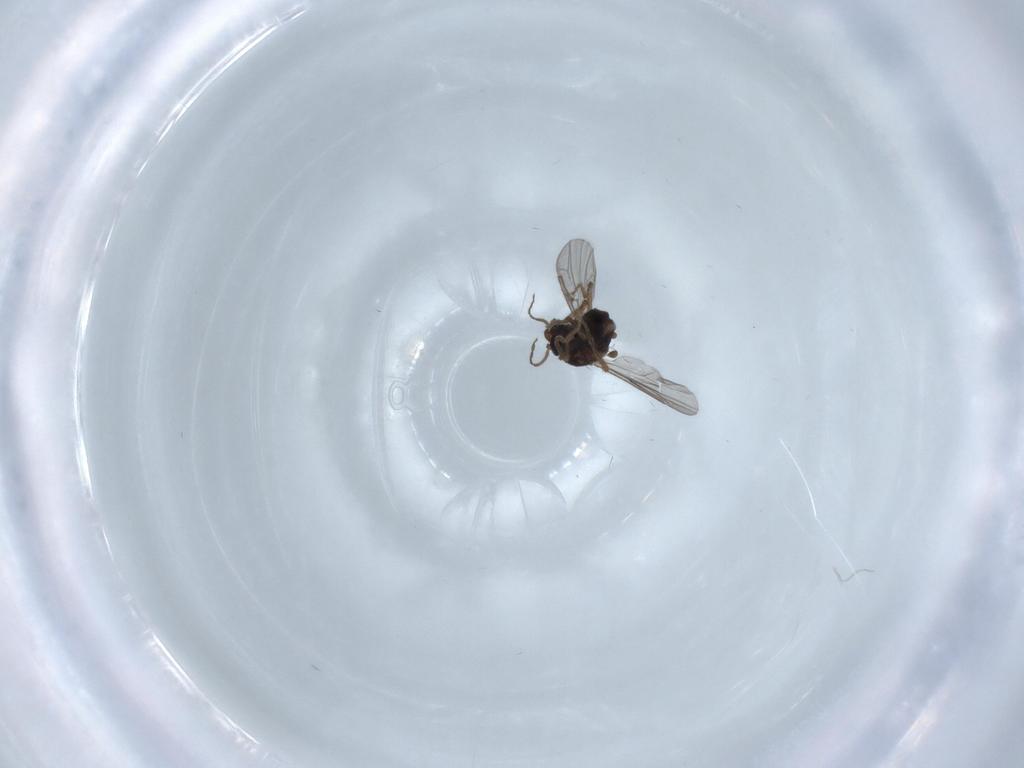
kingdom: Animalia
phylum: Arthropoda
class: Insecta
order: Diptera
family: Ceratopogonidae
